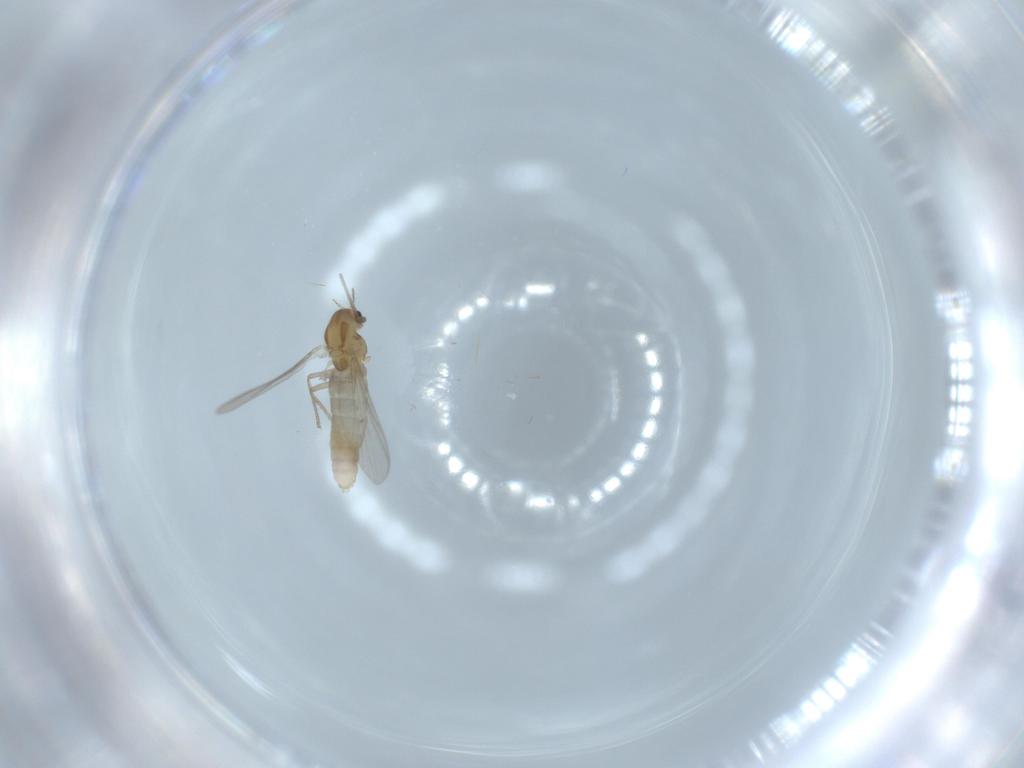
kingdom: Animalia
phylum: Arthropoda
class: Insecta
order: Diptera
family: Chironomidae
